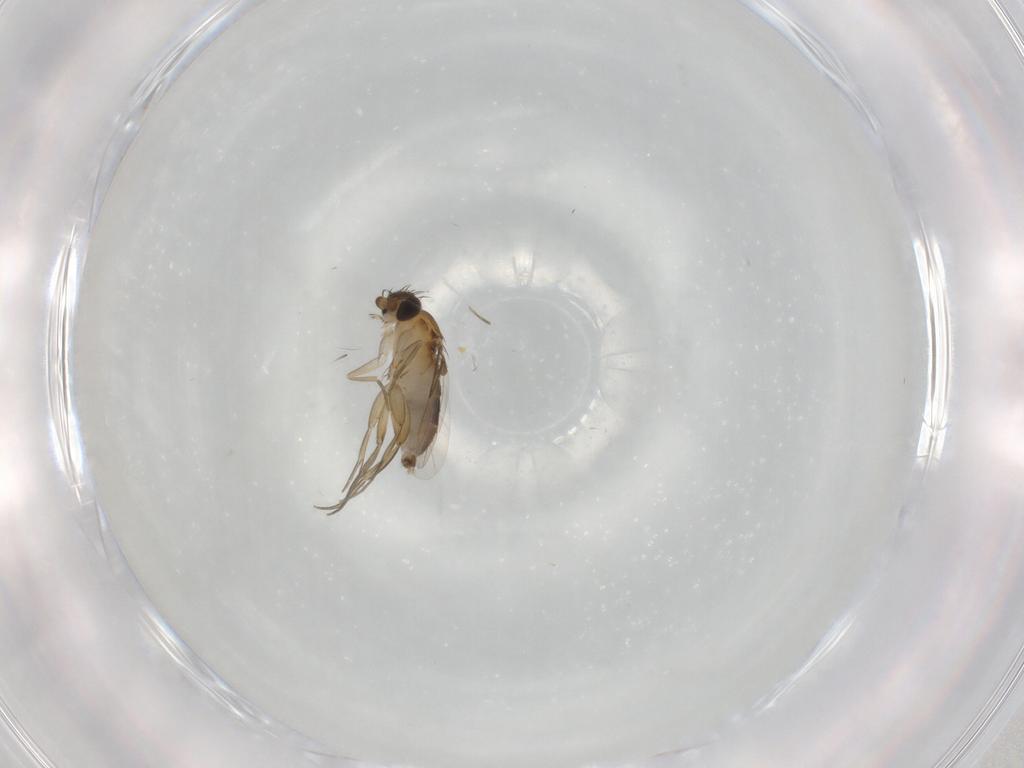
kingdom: Animalia
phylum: Arthropoda
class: Insecta
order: Diptera
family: Phoridae
